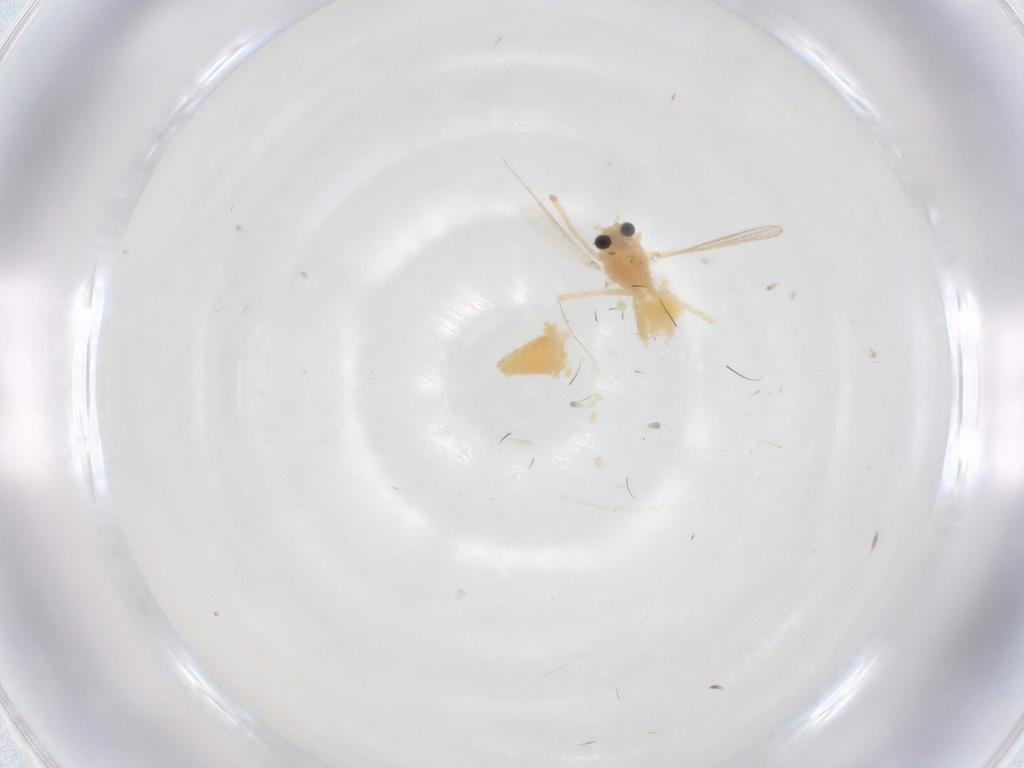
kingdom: Animalia
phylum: Arthropoda
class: Insecta
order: Diptera
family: Chironomidae
